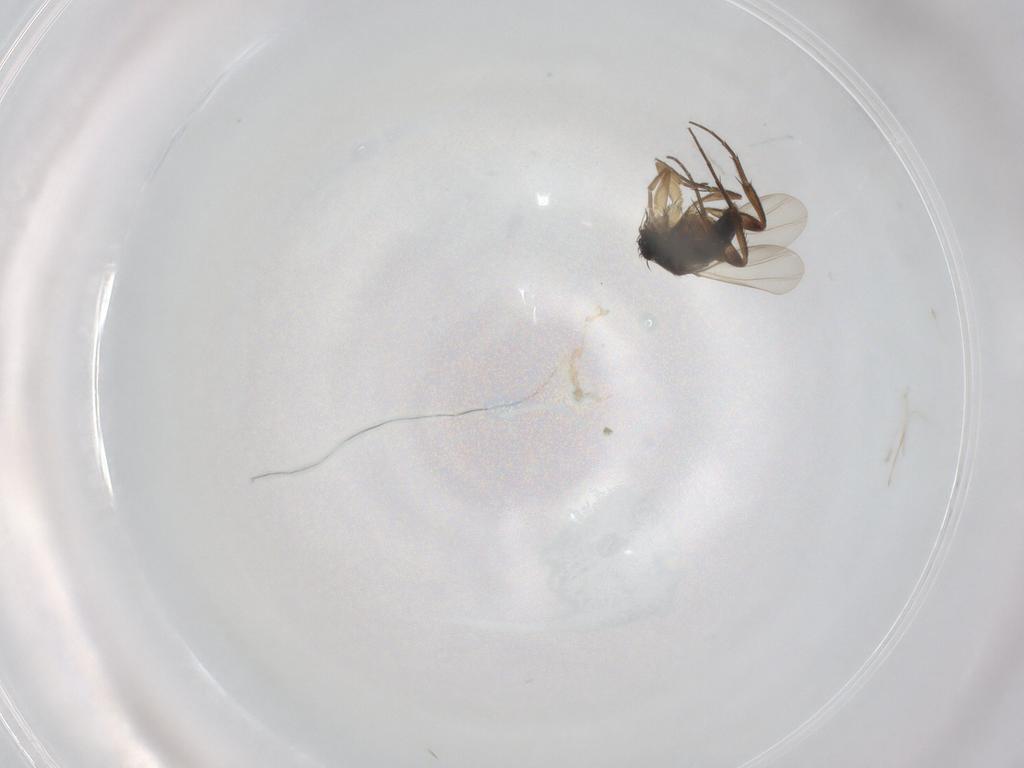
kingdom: Animalia
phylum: Arthropoda
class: Insecta
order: Diptera
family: Phoridae
